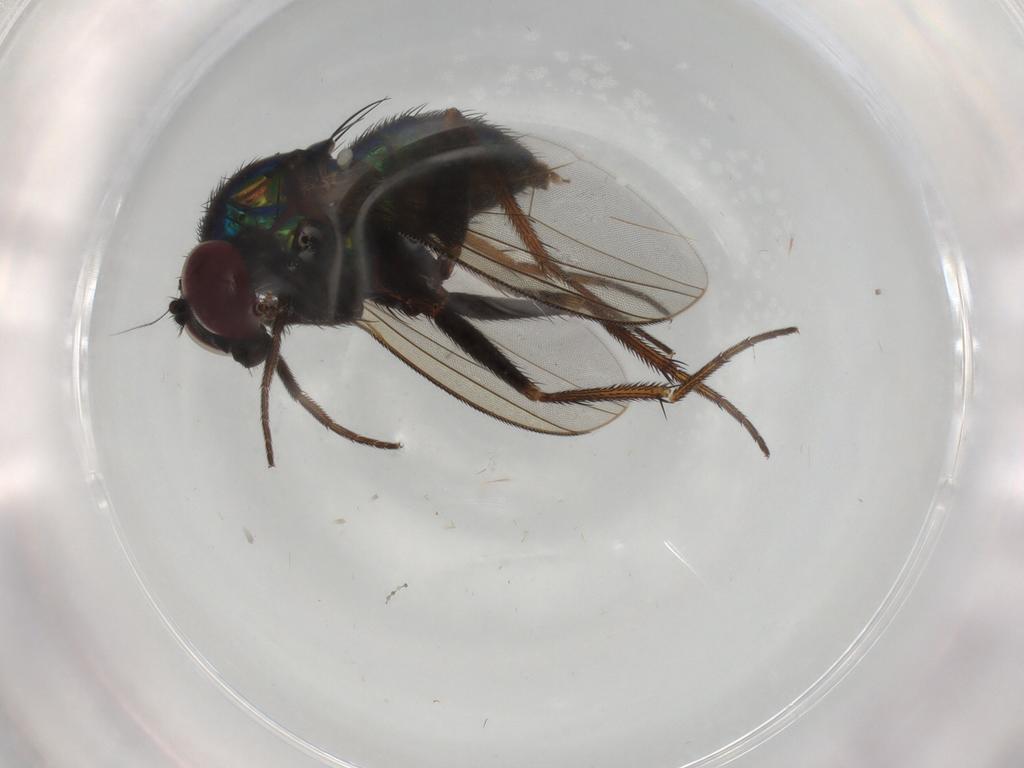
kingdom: Animalia
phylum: Arthropoda
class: Insecta
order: Diptera
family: Dolichopodidae
